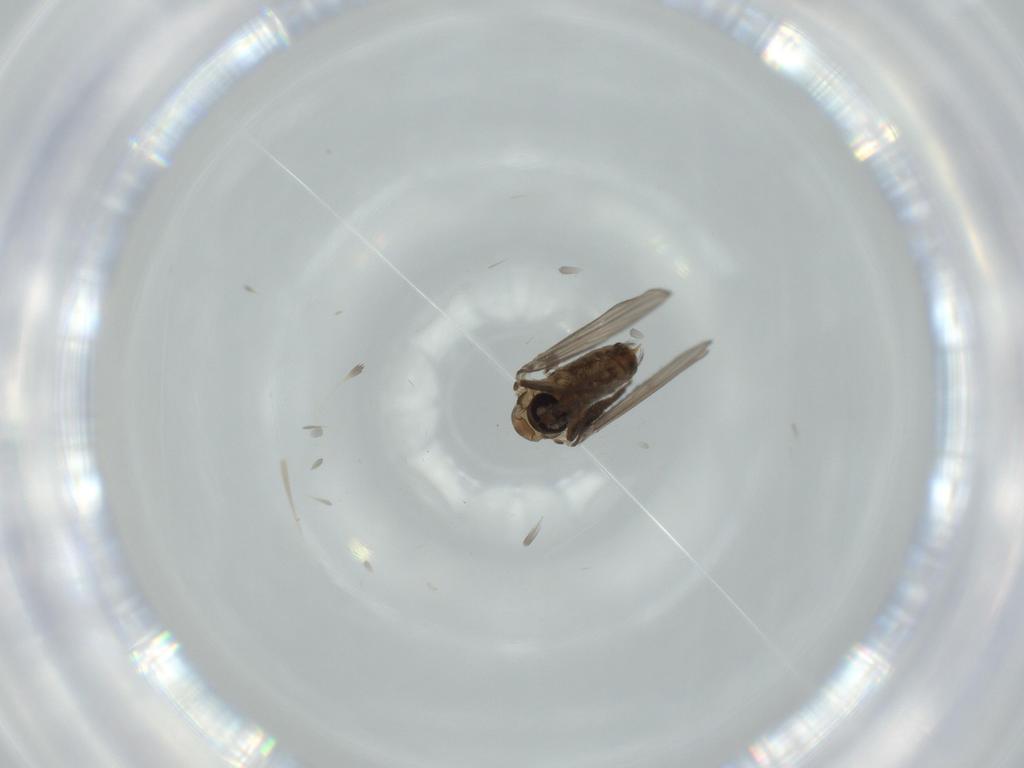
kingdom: Animalia
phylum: Arthropoda
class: Insecta
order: Diptera
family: Psychodidae
